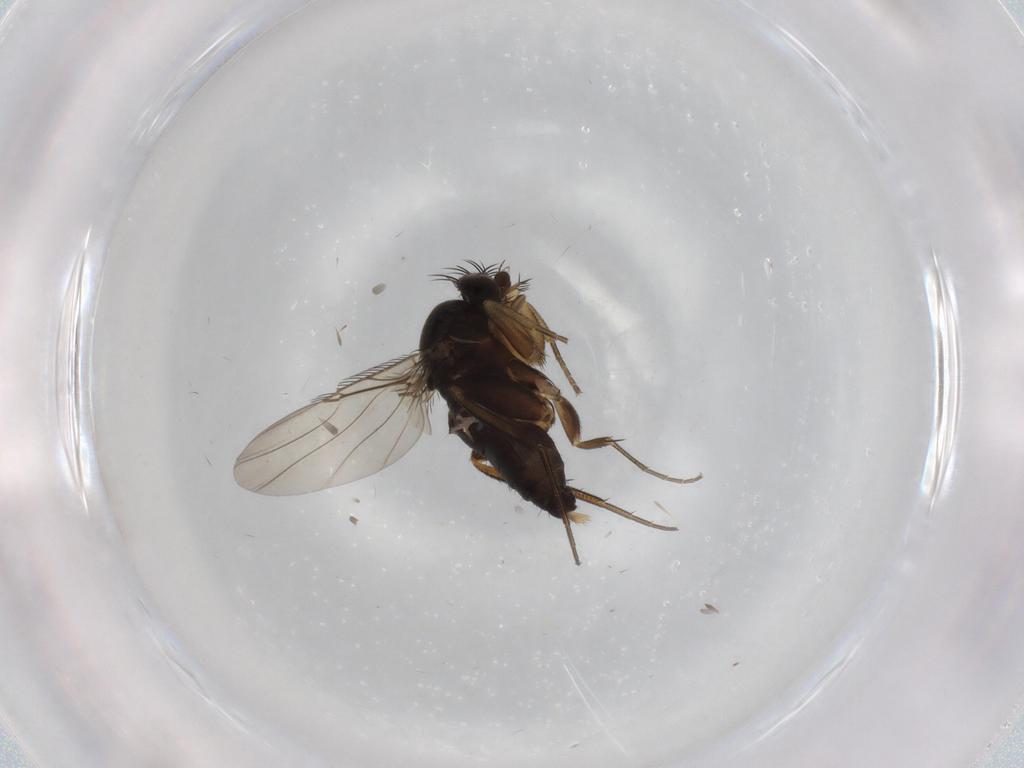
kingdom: Animalia
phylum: Arthropoda
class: Insecta
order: Diptera
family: Phoridae
